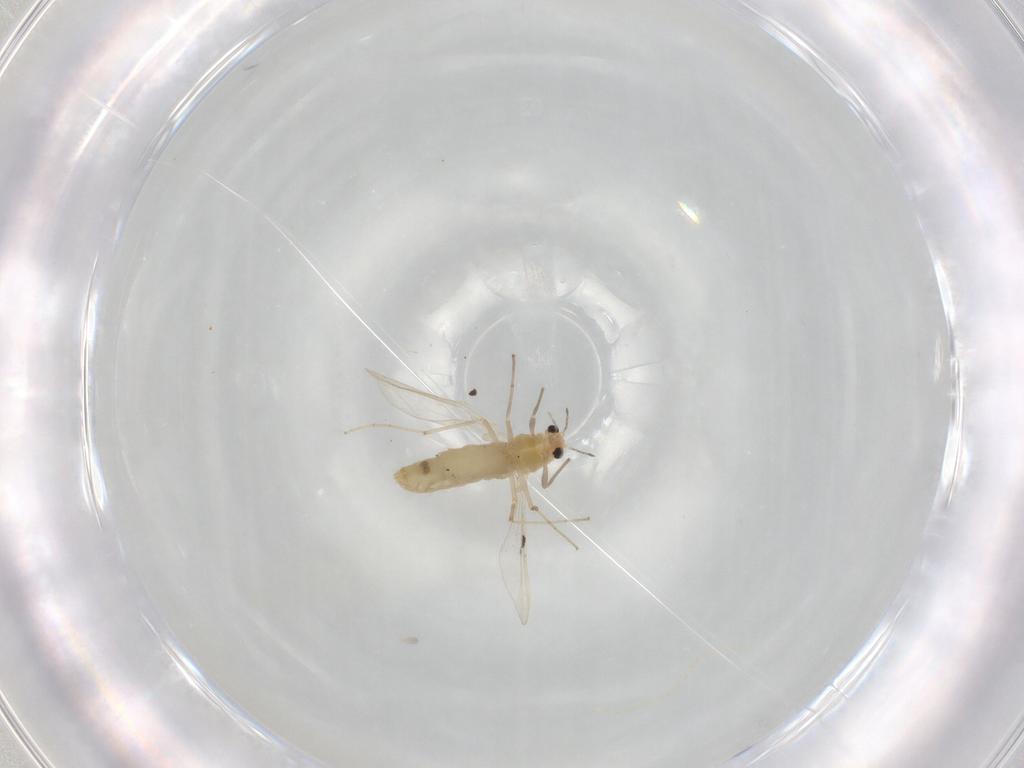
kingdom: Animalia
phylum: Arthropoda
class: Insecta
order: Diptera
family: Chironomidae
